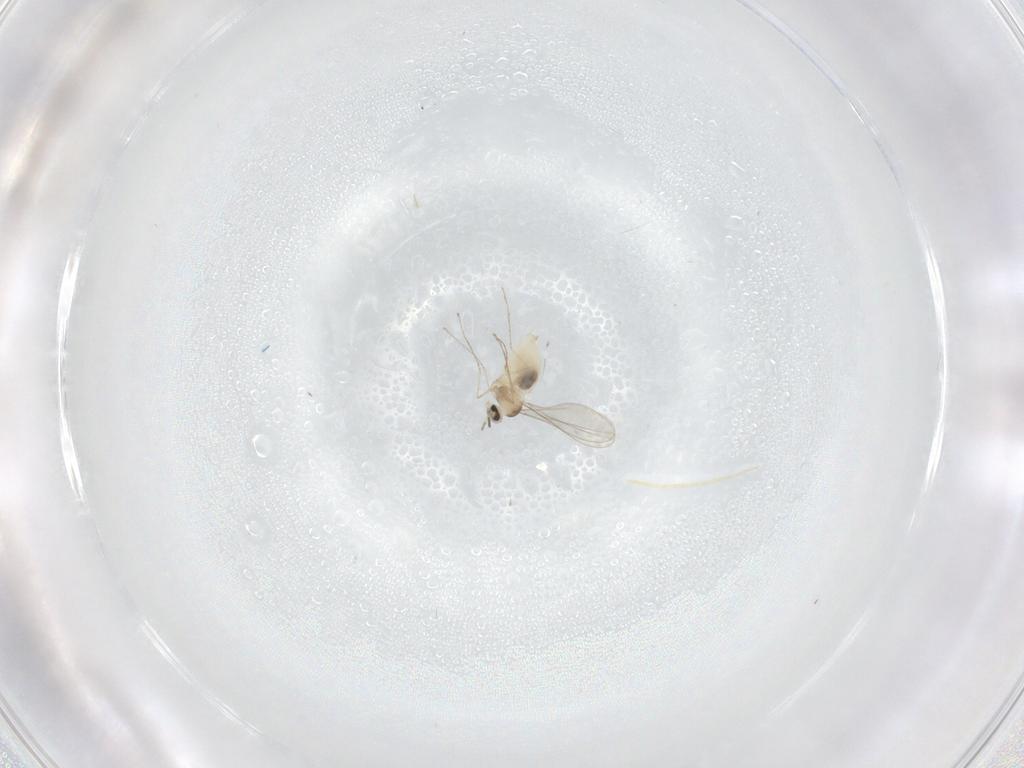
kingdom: Animalia
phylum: Arthropoda
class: Insecta
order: Diptera
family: Cecidomyiidae
